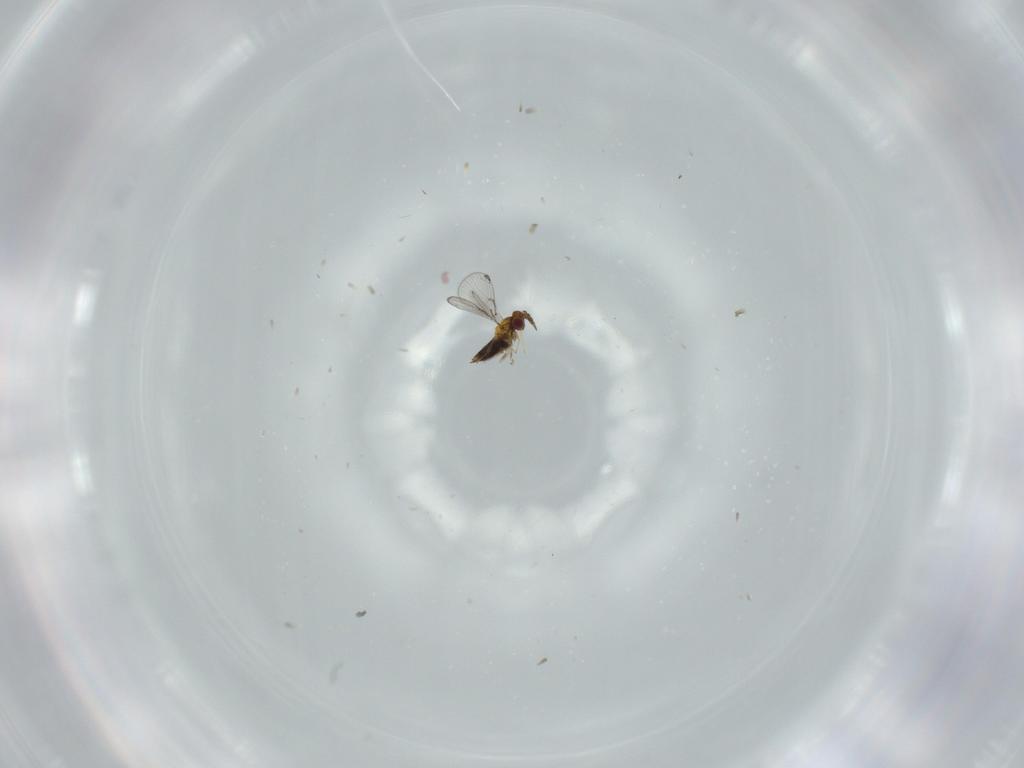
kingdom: Animalia
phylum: Arthropoda
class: Insecta
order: Hymenoptera
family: Trichogrammatidae
